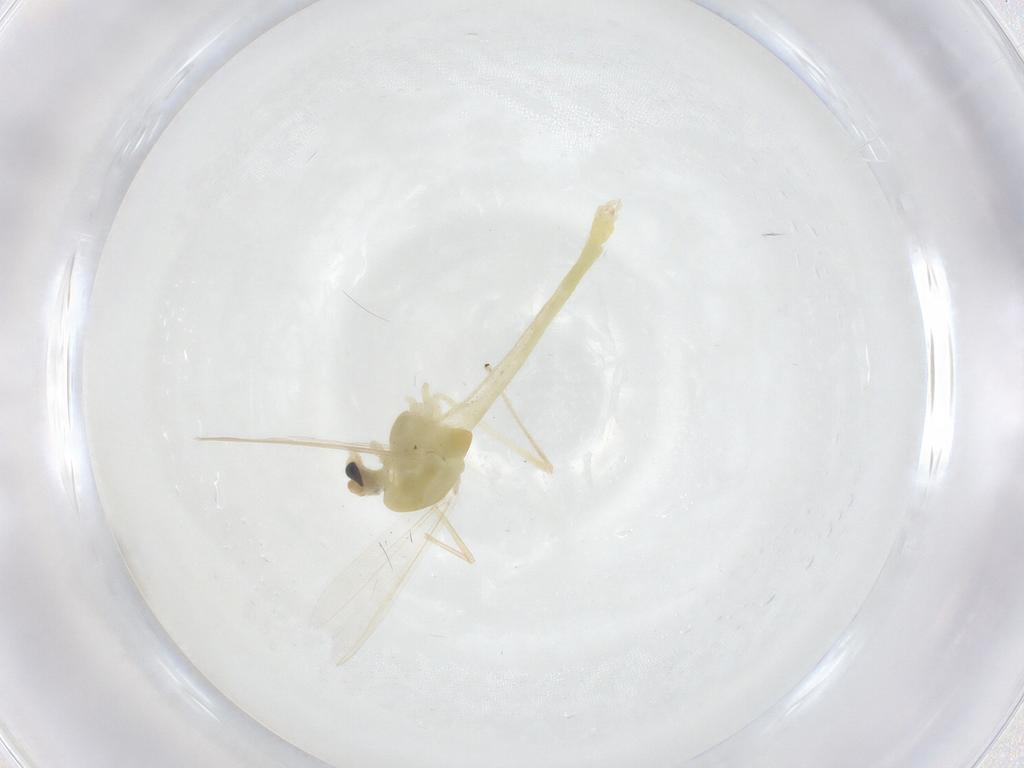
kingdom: Animalia
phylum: Arthropoda
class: Insecta
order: Diptera
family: Chironomidae
